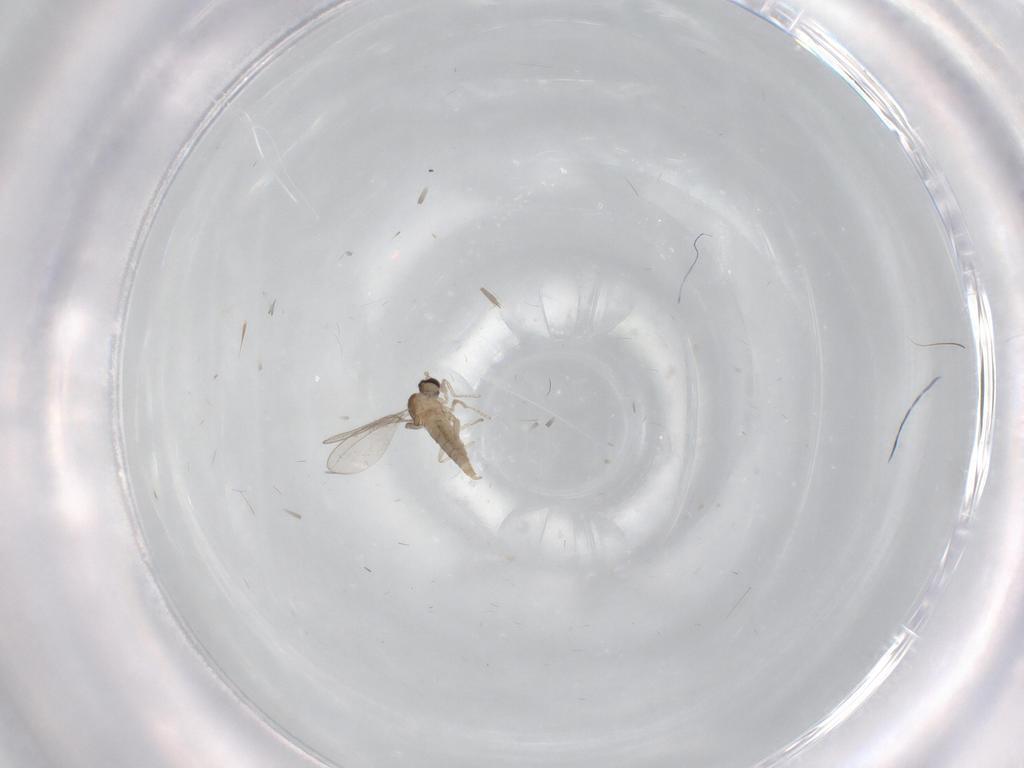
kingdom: Animalia
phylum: Arthropoda
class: Insecta
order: Diptera
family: Cecidomyiidae
